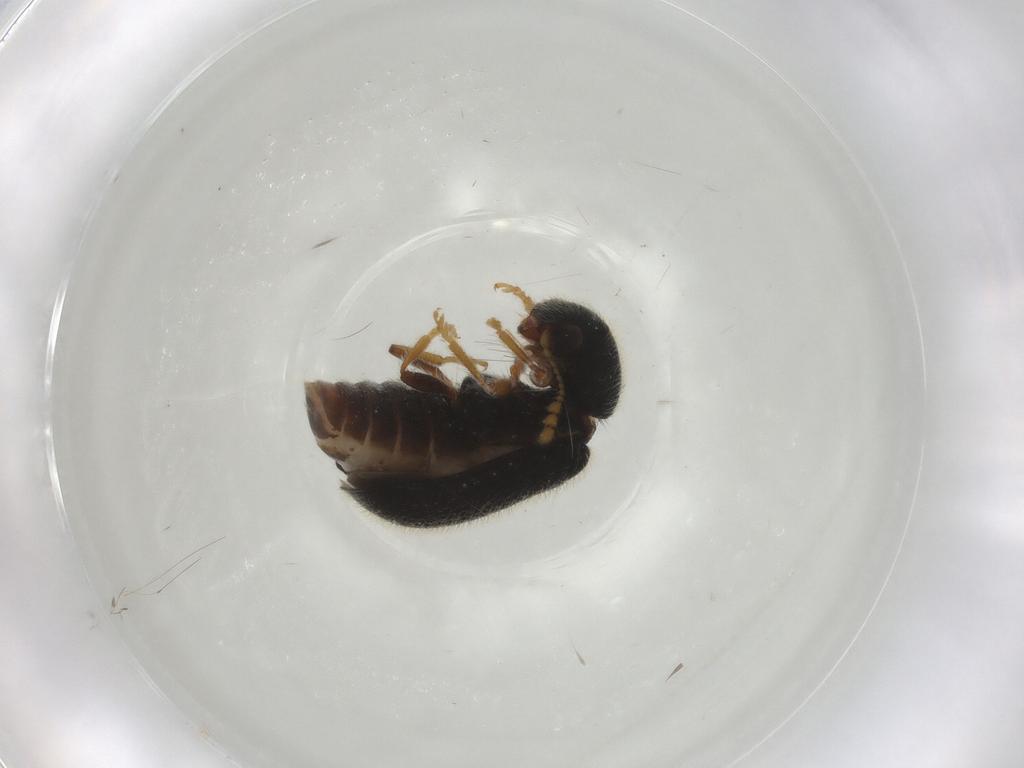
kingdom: Animalia
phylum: Arthropoda
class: Insecta
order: Coleoptera
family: Cleridae
